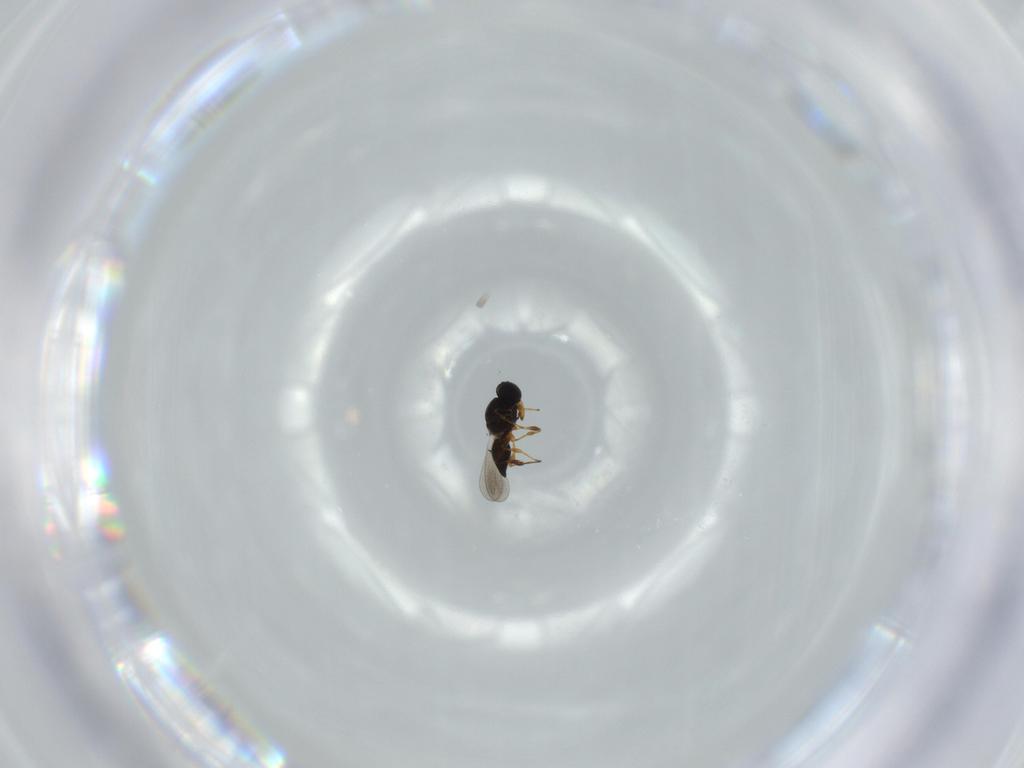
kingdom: Animalia
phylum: Arthropoda
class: Insecta
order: Hymenoptera
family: Platygastridae
